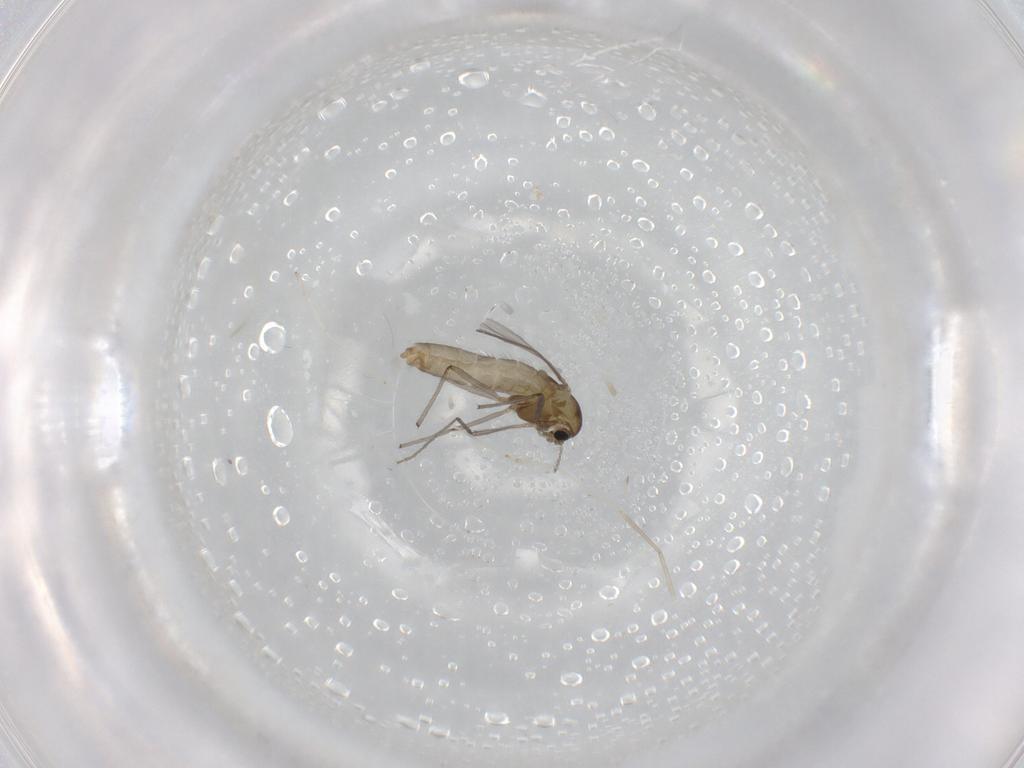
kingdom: Animalia
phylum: Arthropoda
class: Insecta
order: Diptera
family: Chironomidae
